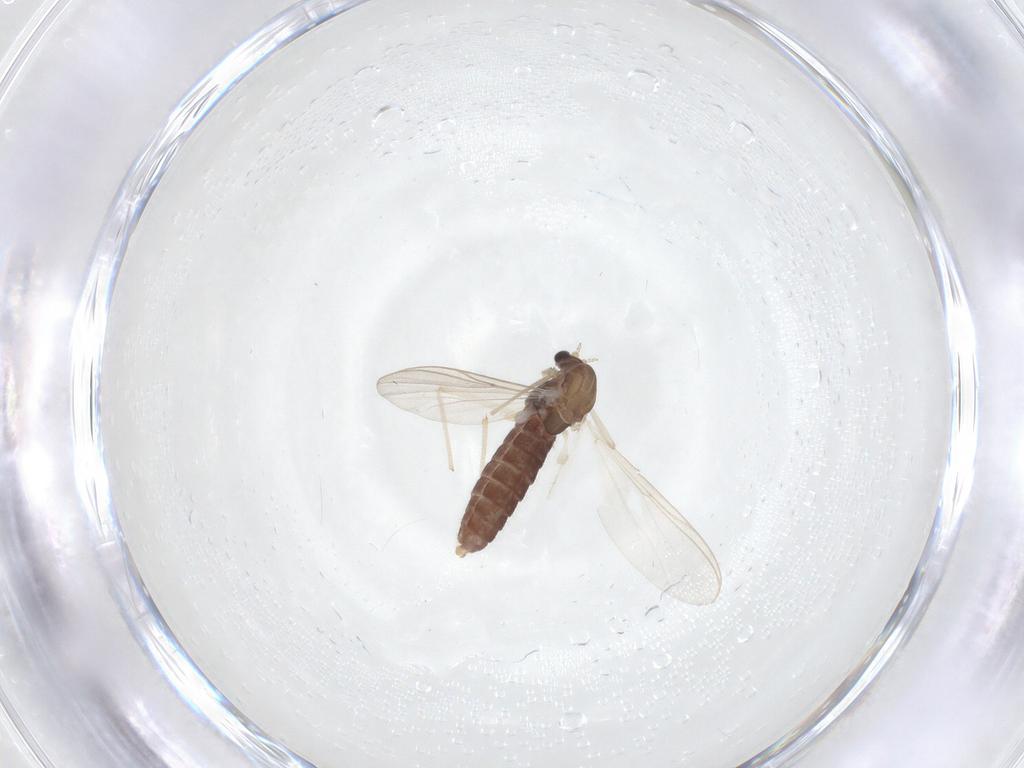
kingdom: Animalia
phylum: Arthropoda
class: Insecta
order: Diptera
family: Chironomidae
